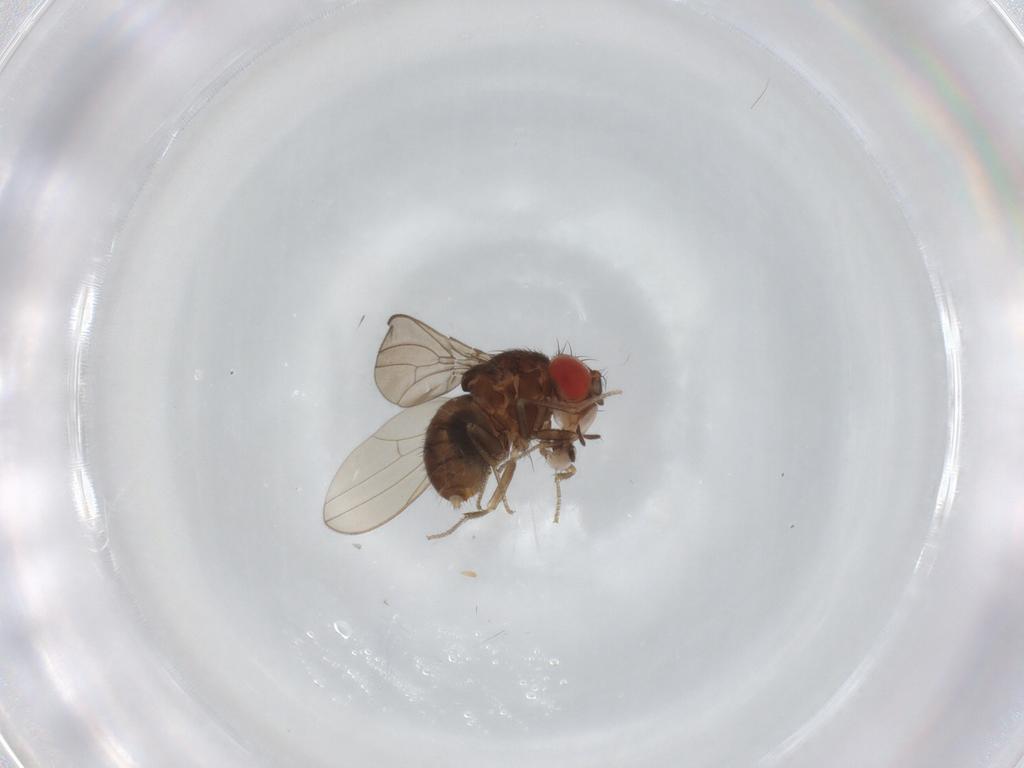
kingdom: Animalia
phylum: Arthropoda
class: Insecta
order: Diptera
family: Drosophilidae
